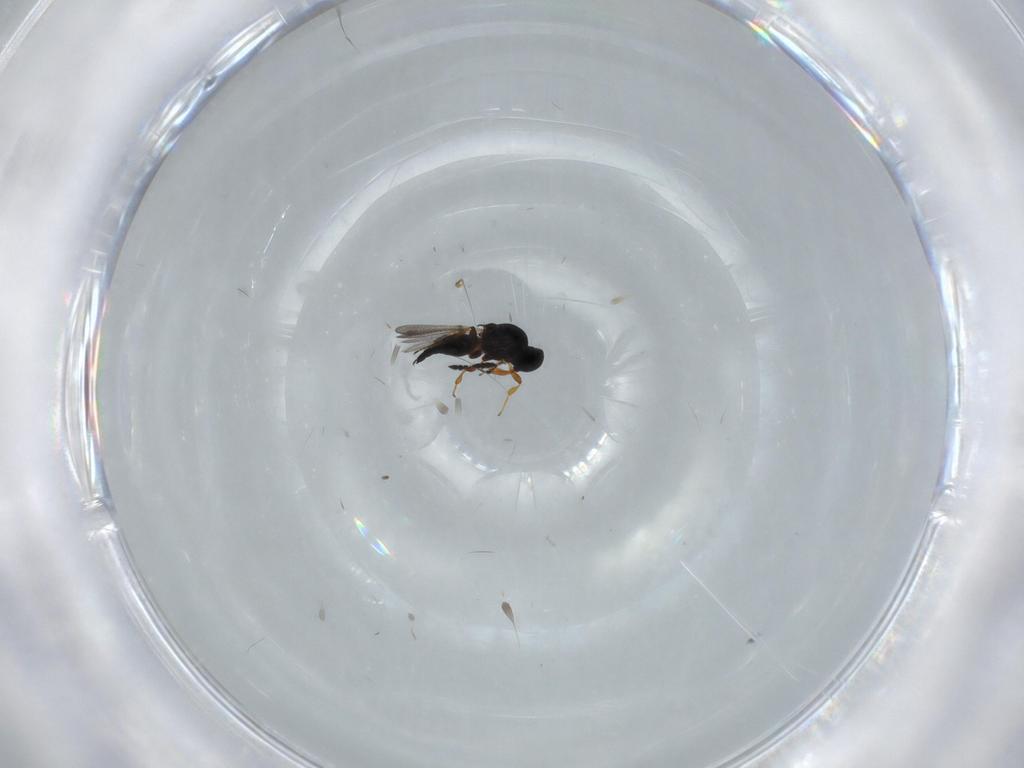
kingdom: Animalia
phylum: Arthropoda
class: Insecta
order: Hymenoptera
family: Platygastridae
